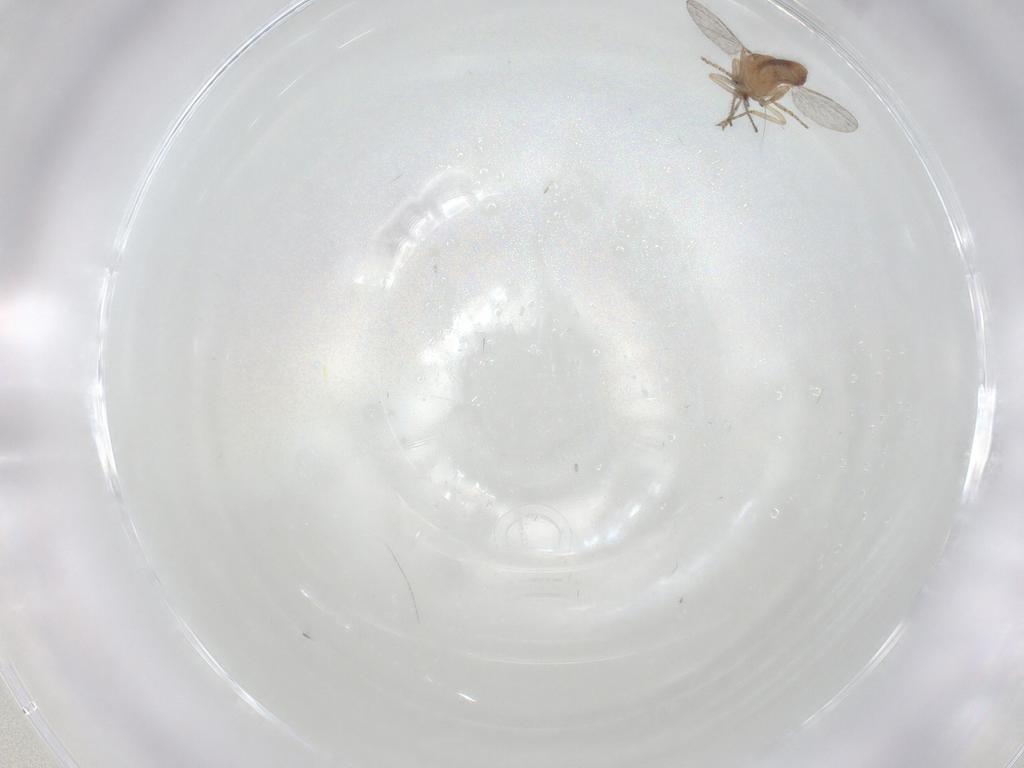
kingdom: Animalia
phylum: Arthropoda
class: Insecta
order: Diptera
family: Ceratopogonidae
